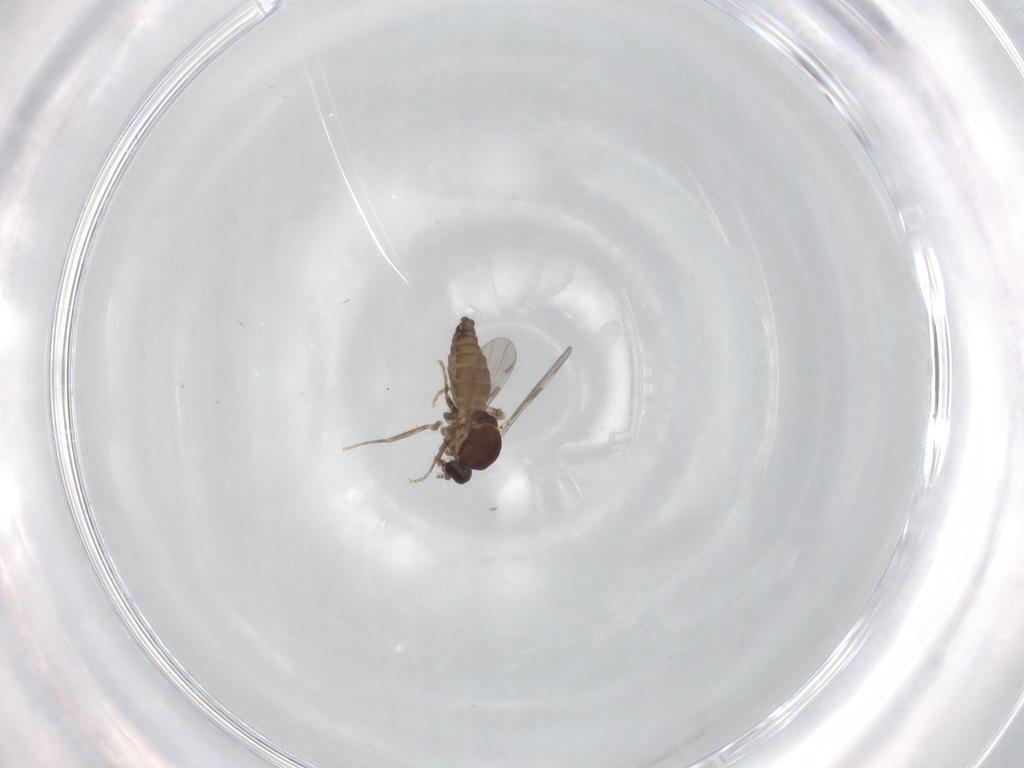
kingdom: Animalia
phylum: Arthropoda
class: Insecta
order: Diptera
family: Ceratopogonidae
